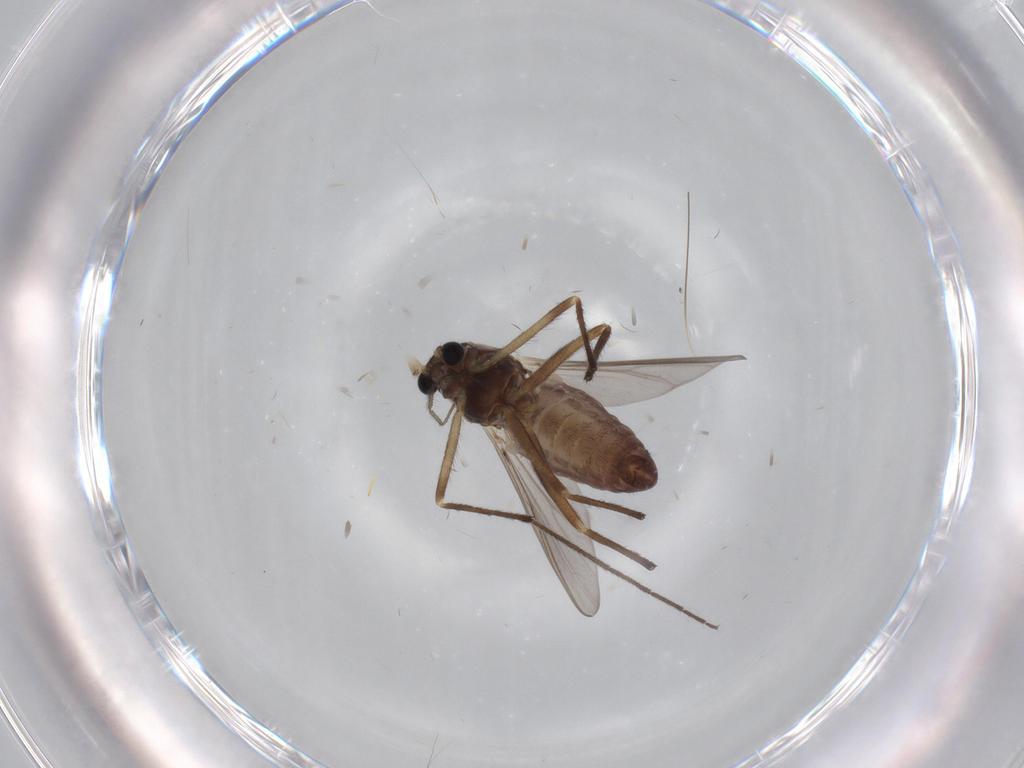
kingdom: Animalia
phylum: Arthropoda
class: Insecta
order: Diptera
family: Chironomidae
